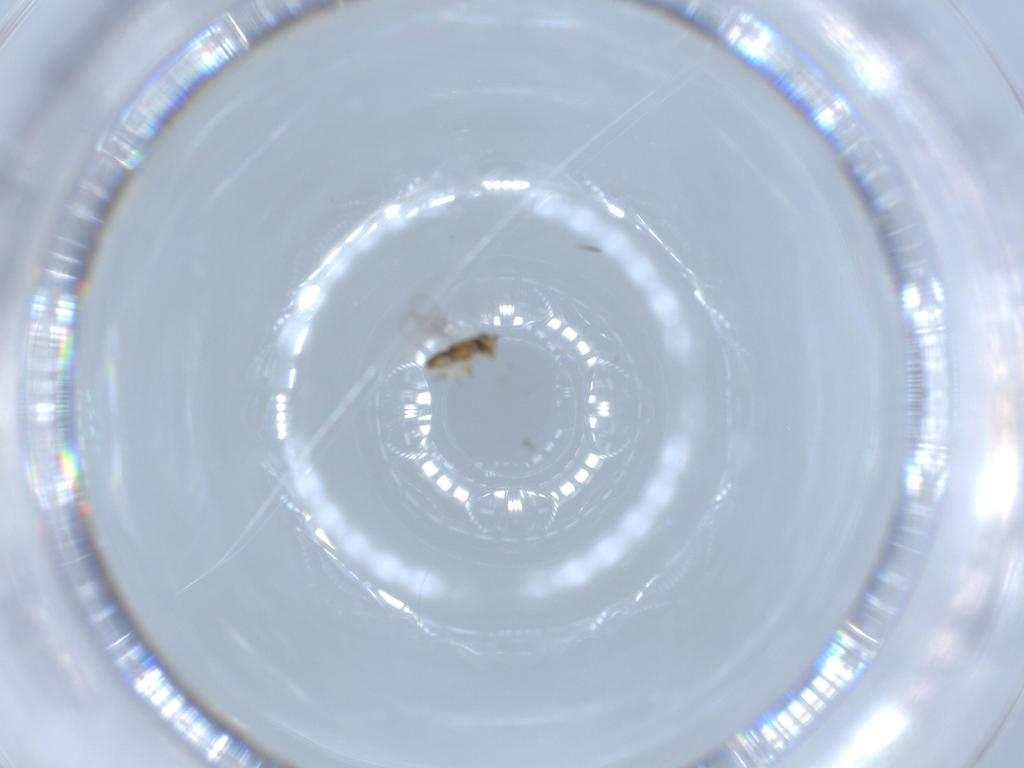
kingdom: Animalia
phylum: Arthropoda
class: Insecta
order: Hymenoptera
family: Encyrtidae
